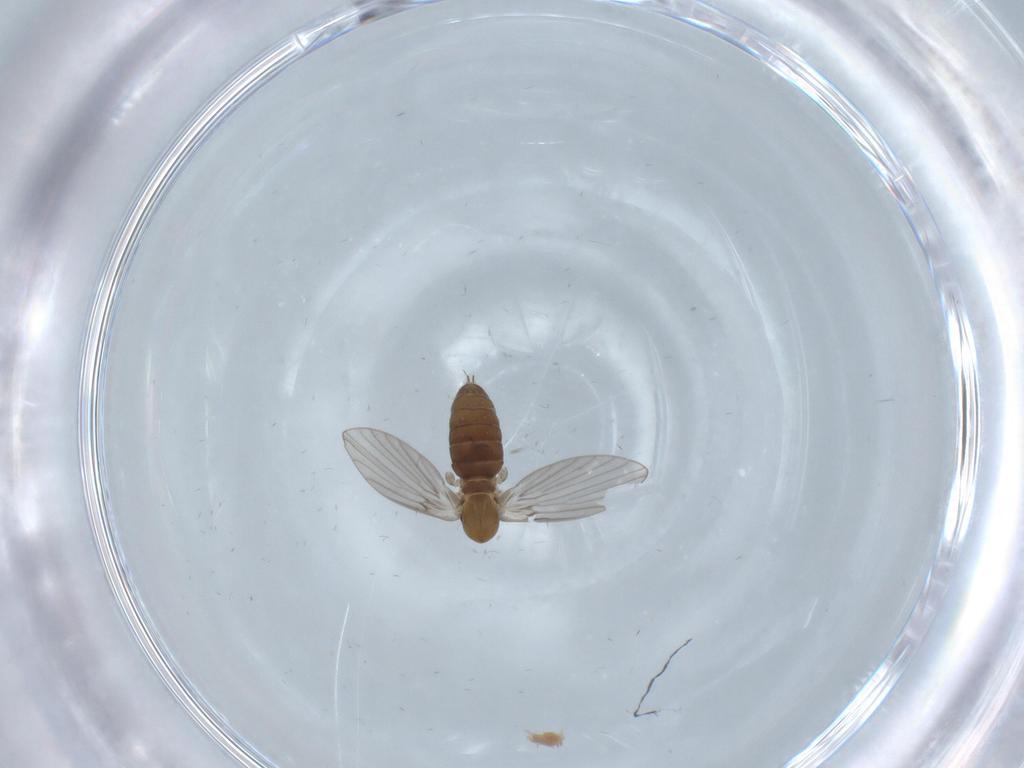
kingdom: Animalia
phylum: Arthropoda
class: Insecta
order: Diptera
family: Psychodidae
